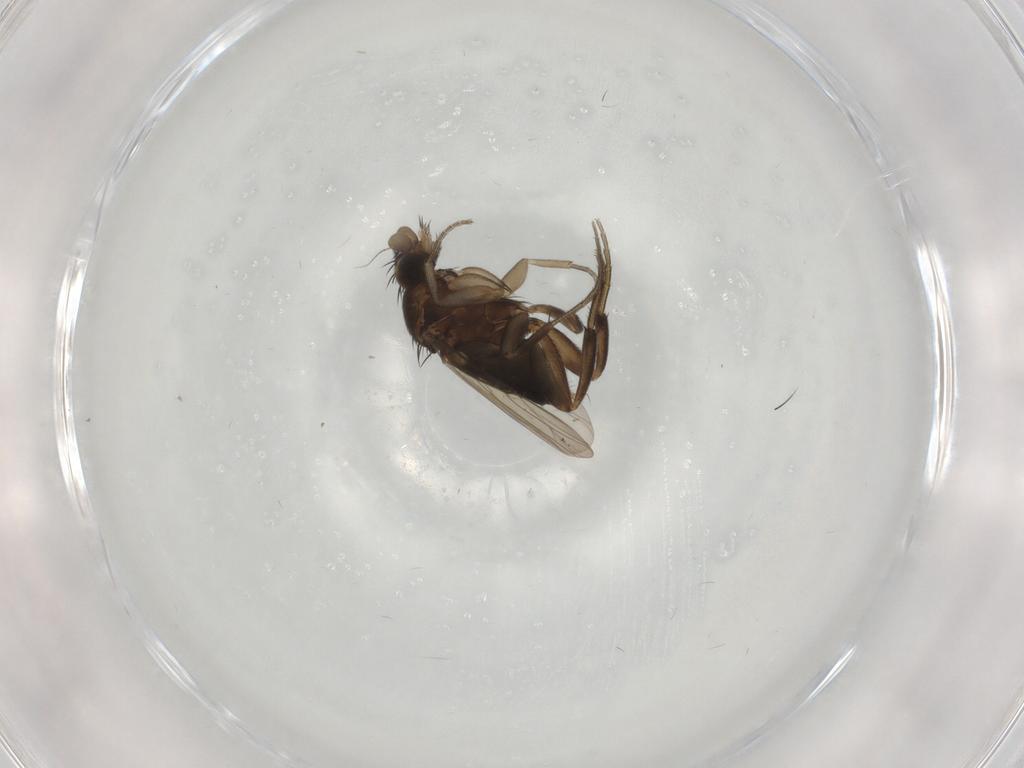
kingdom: Animalia
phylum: Arthropoda
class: Insecta
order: Diptera
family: Phoridae
